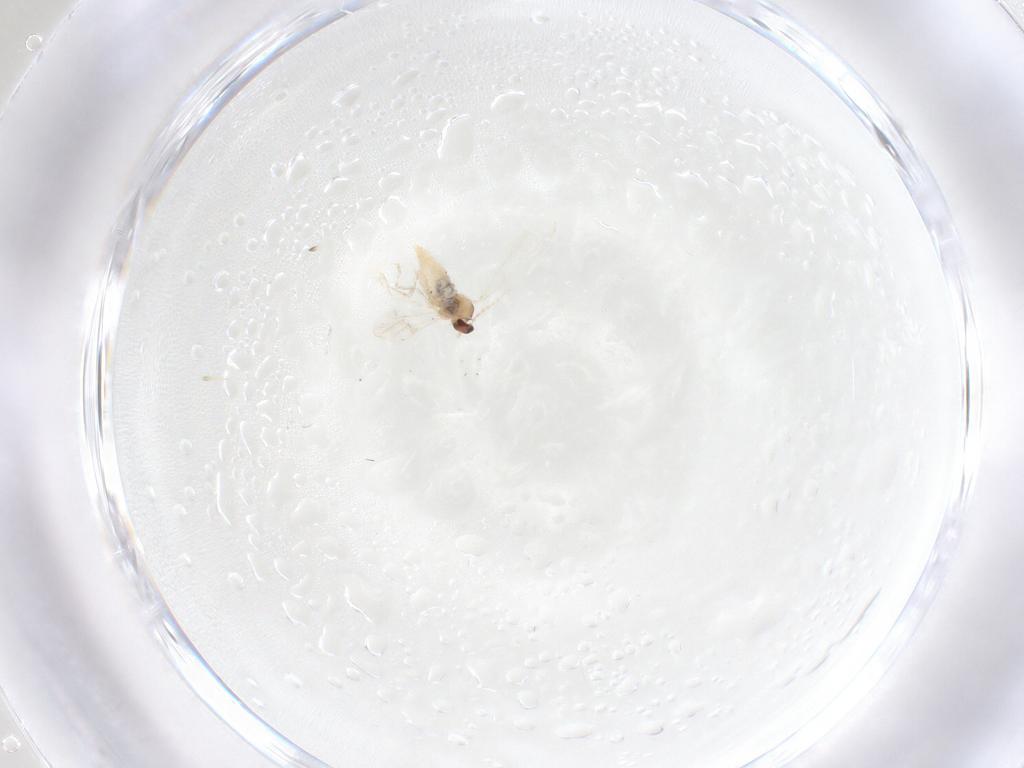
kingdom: Animalia
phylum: Arthropoda
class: Insecta
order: Diptera
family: Cecidomyiidae
